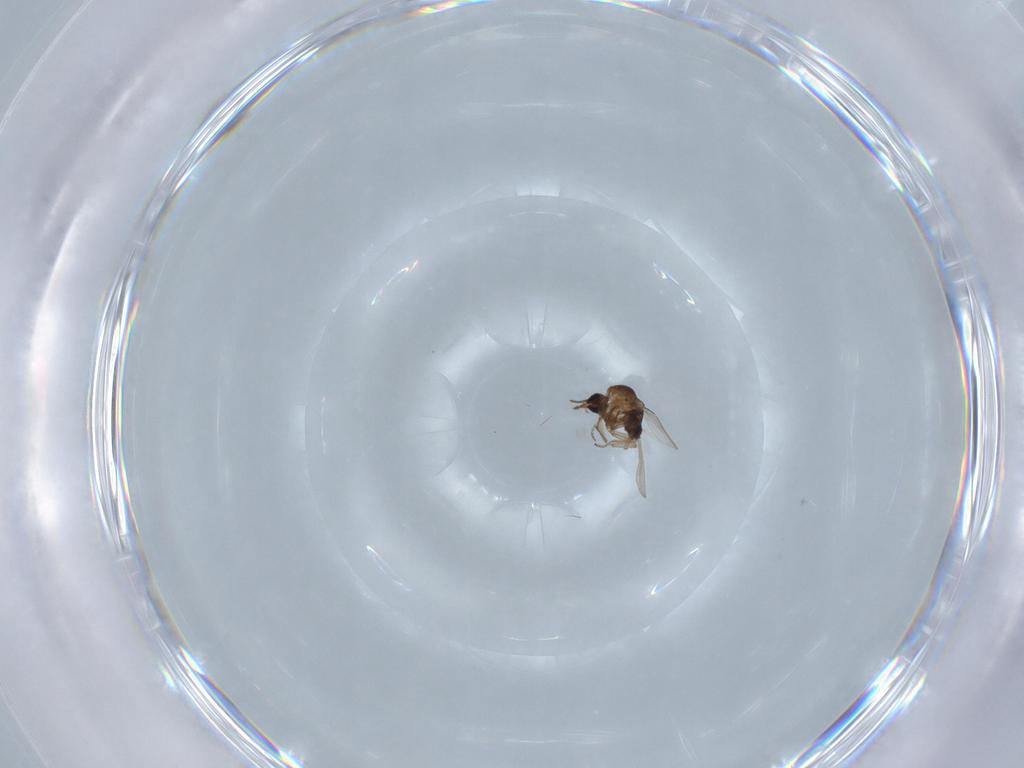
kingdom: Animalia
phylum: Arthropoda
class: Insecta
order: Diptera
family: Ceratopogonidae
